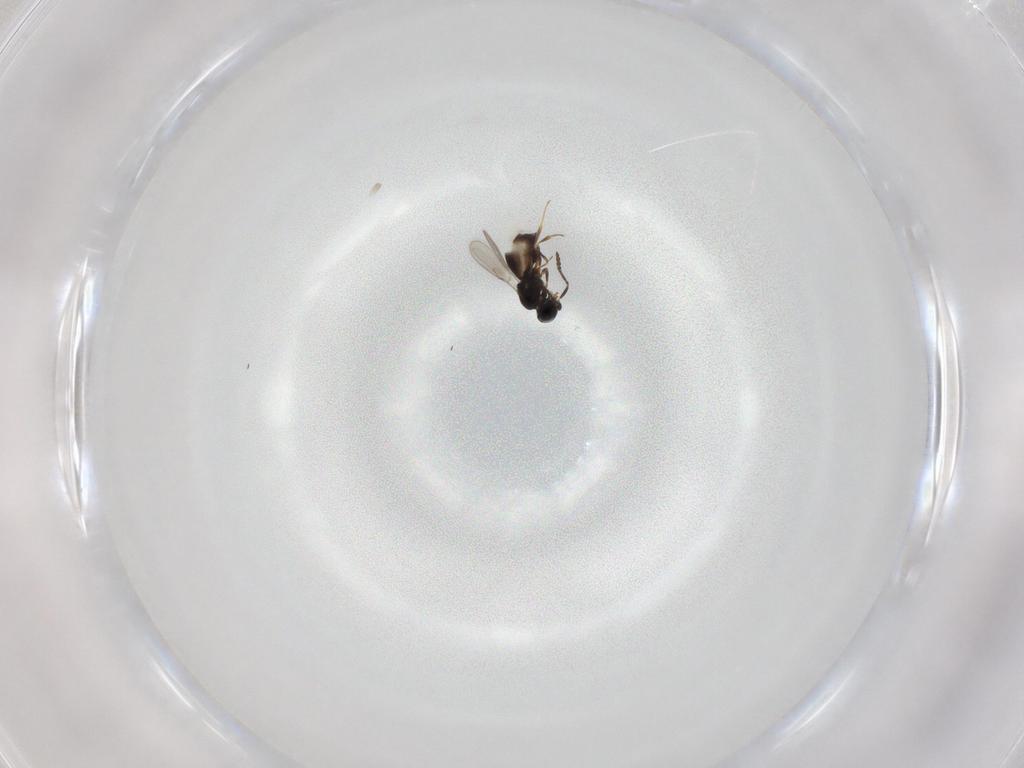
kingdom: Animalia
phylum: Arthropoda
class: Insecta
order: Hymenoptera
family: Scelionidae
